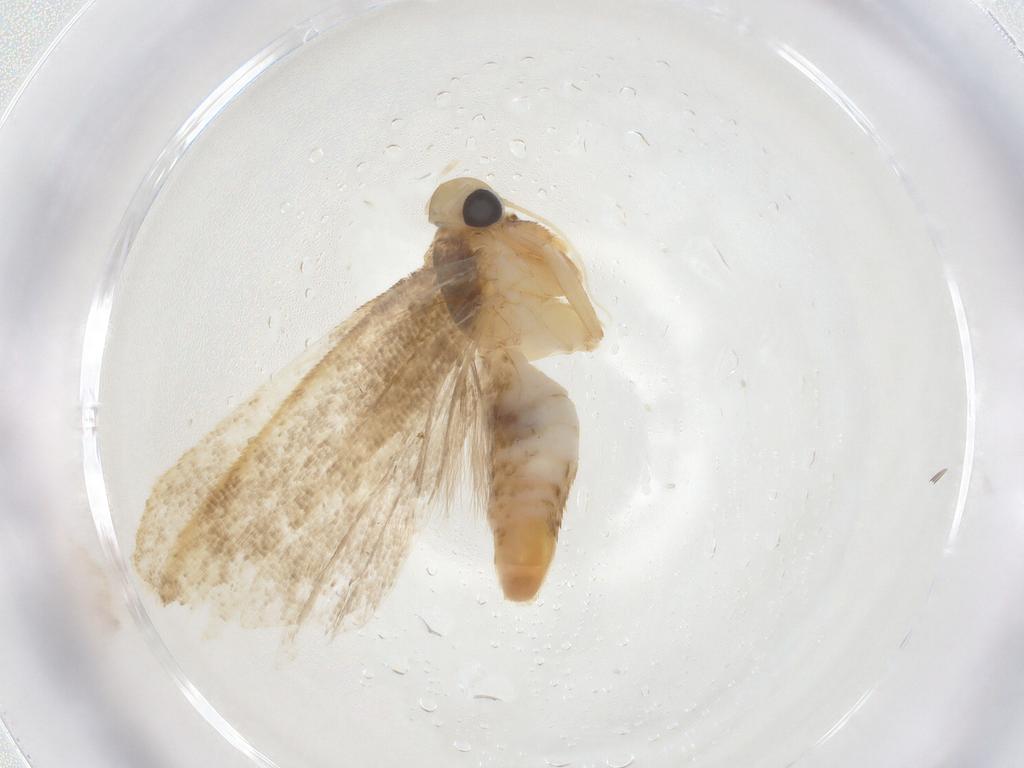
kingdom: Animalia
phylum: Arthropoda
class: Insecta
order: Lepidoptera
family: Gelechiidae
